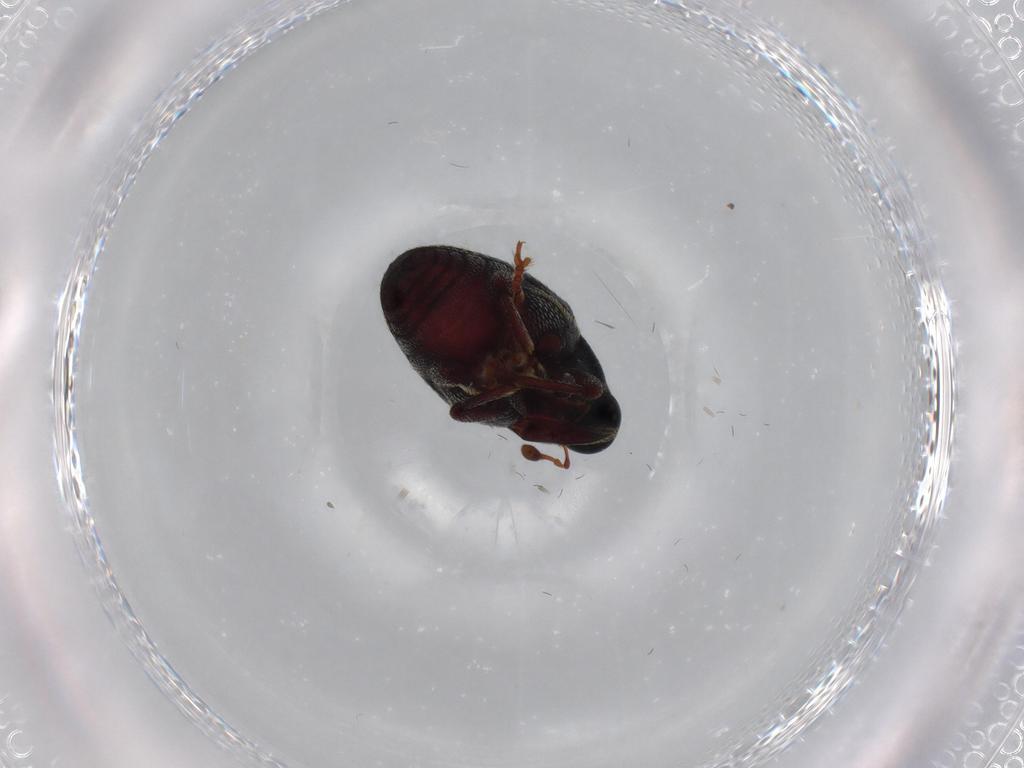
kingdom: Animalia
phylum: Arthropoda
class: Insecta
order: Coleoptera
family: Curculionidae
